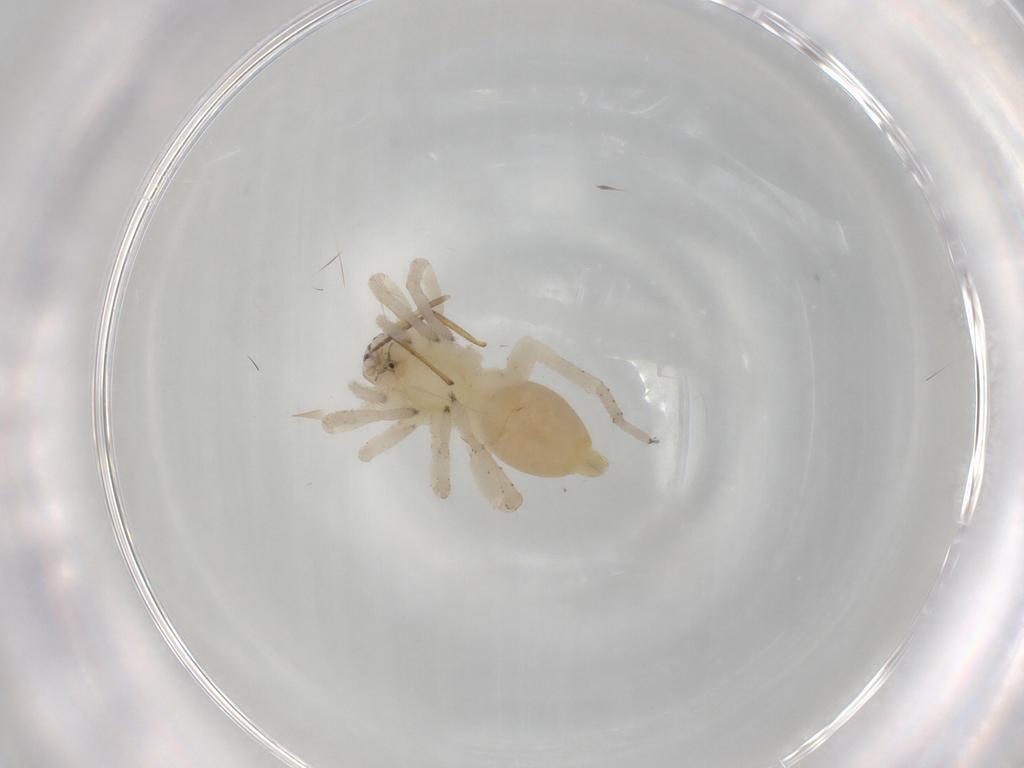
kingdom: Animalia
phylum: Arthropoda
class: Arachnida
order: Araneae
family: Clubionidae
